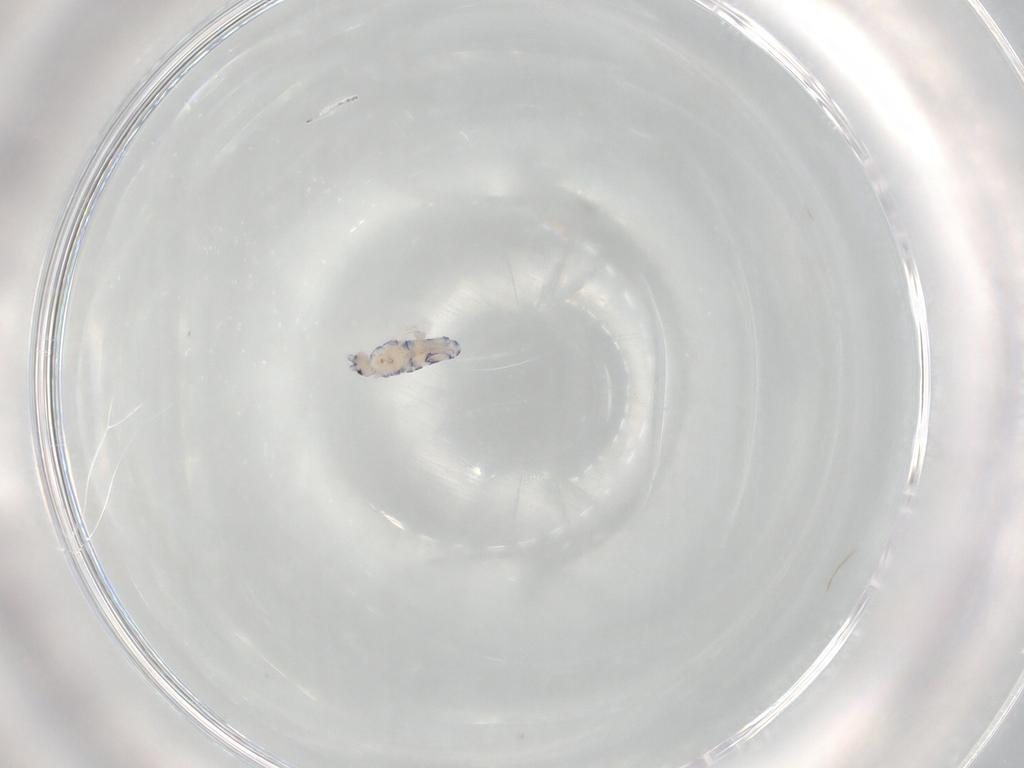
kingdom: Animalia
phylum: Arthropoda
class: Collembola
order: Entomobryomorpha
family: Entomobryidae
